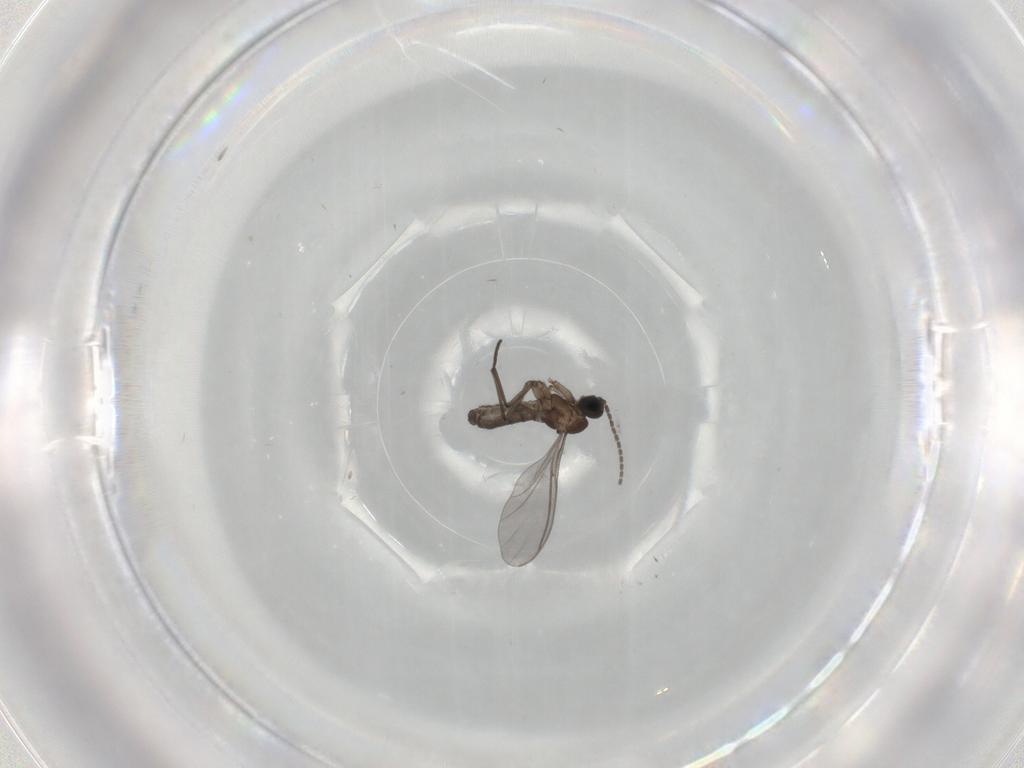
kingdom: Animalia
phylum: Arthropoda
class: Insecta
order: Diptera
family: Sciaridae
